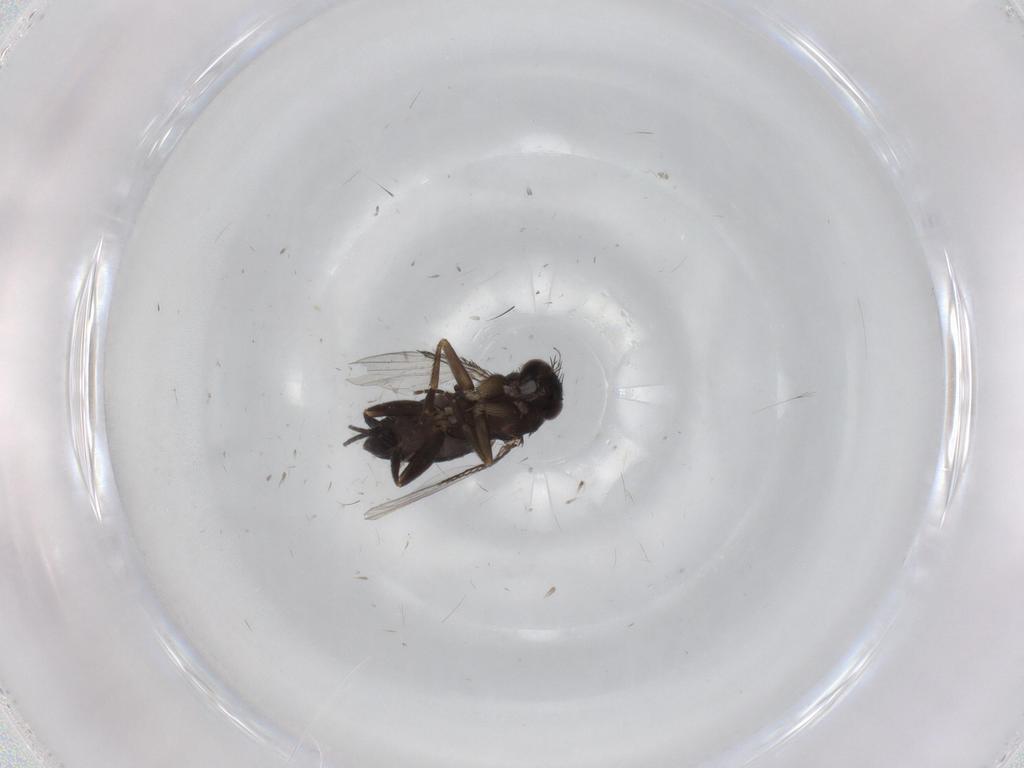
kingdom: Animalia
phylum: Arthropoda
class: Insecta
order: Diptera
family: Phoridae
